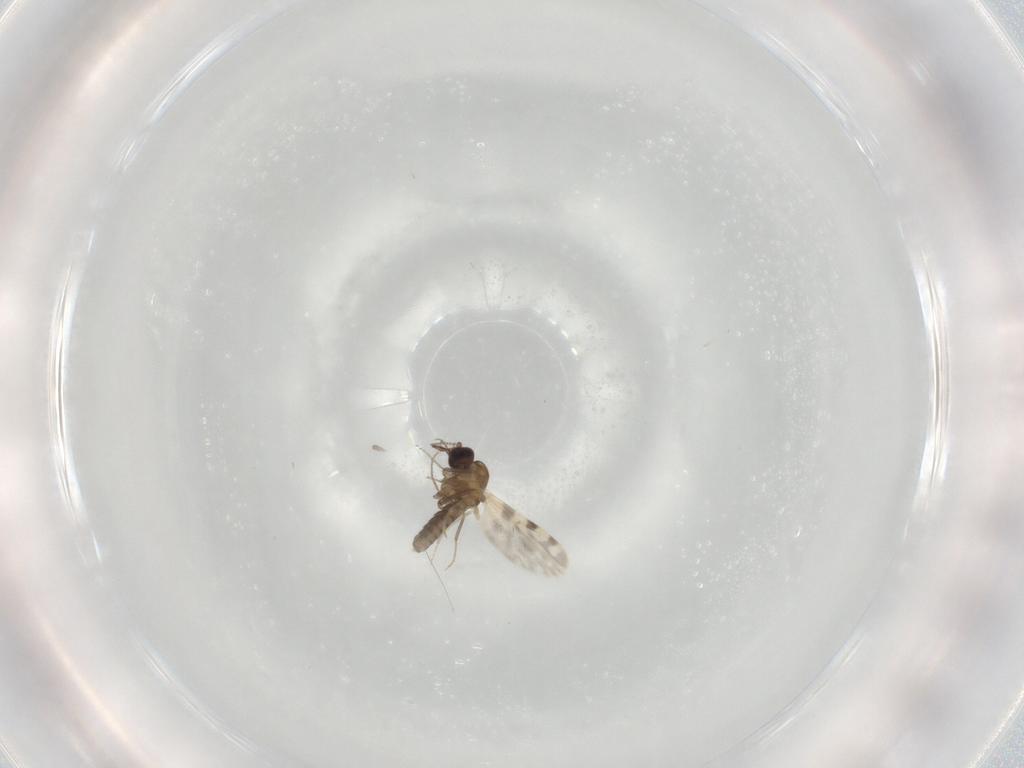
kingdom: Animalia
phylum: Arthropoda
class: Insecta
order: Diptera
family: Ceratopogonidae
